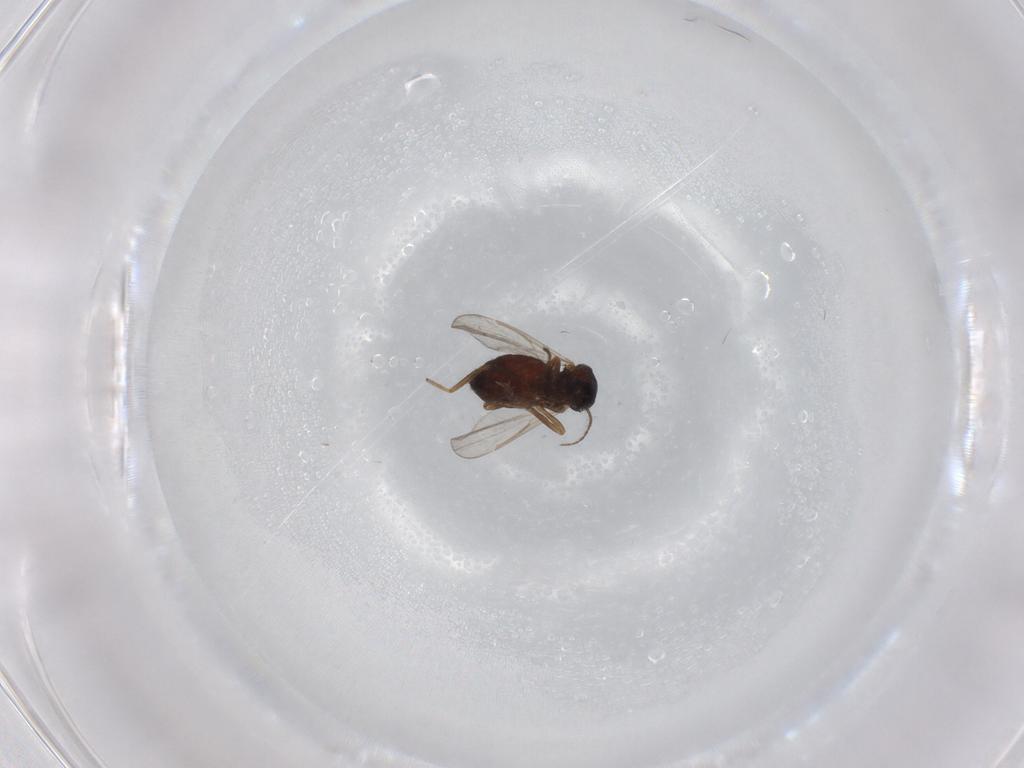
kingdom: Animalia
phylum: Arthropoda
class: Insecta
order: Diptera
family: Ceratopogonidae
